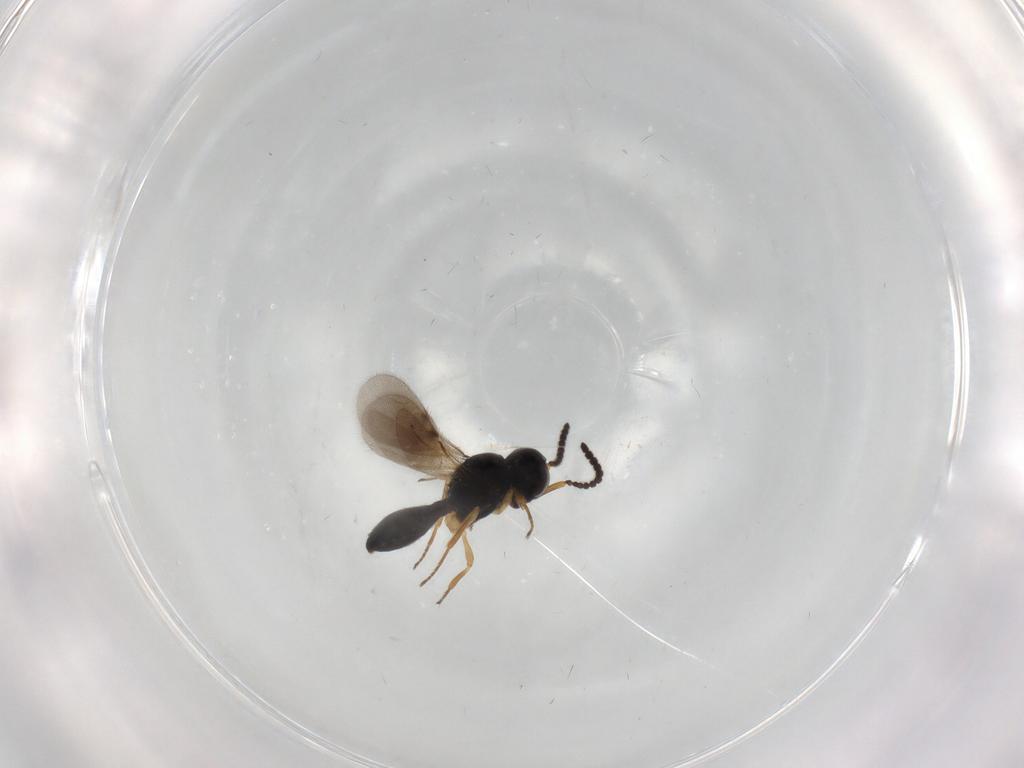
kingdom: Animalia
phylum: Arthropoda
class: Insecta
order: Hymenoptera
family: Scelionidae
